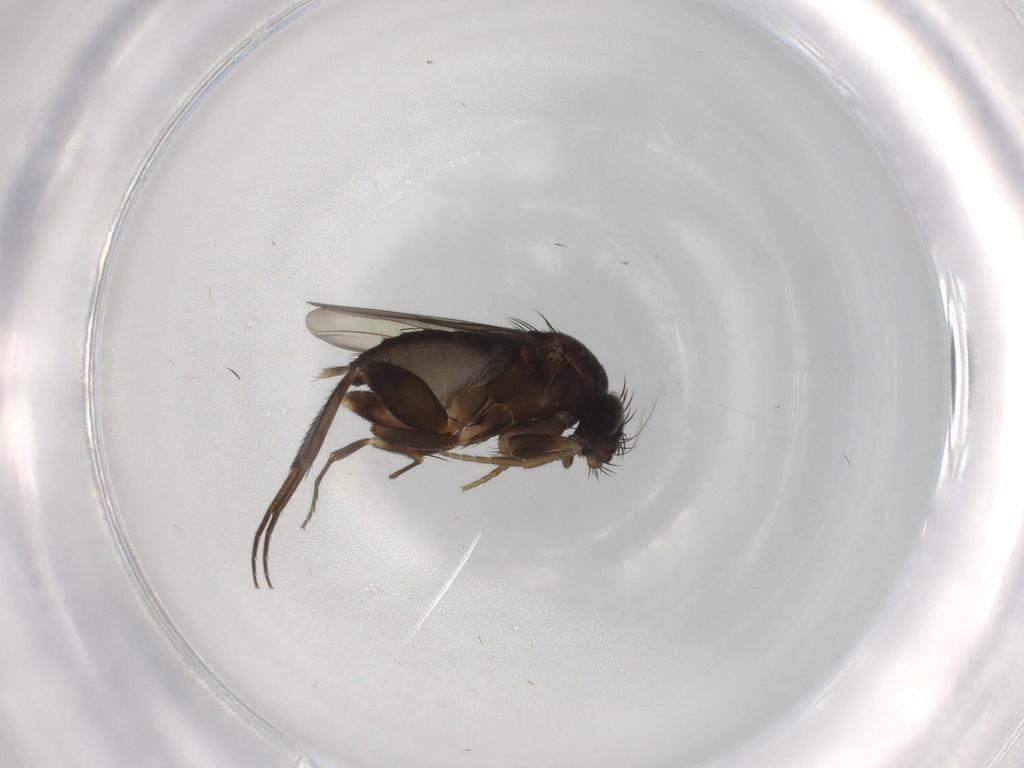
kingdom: Animalia
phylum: Arthropoda
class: Insecta
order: Diptera
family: Phoridae
